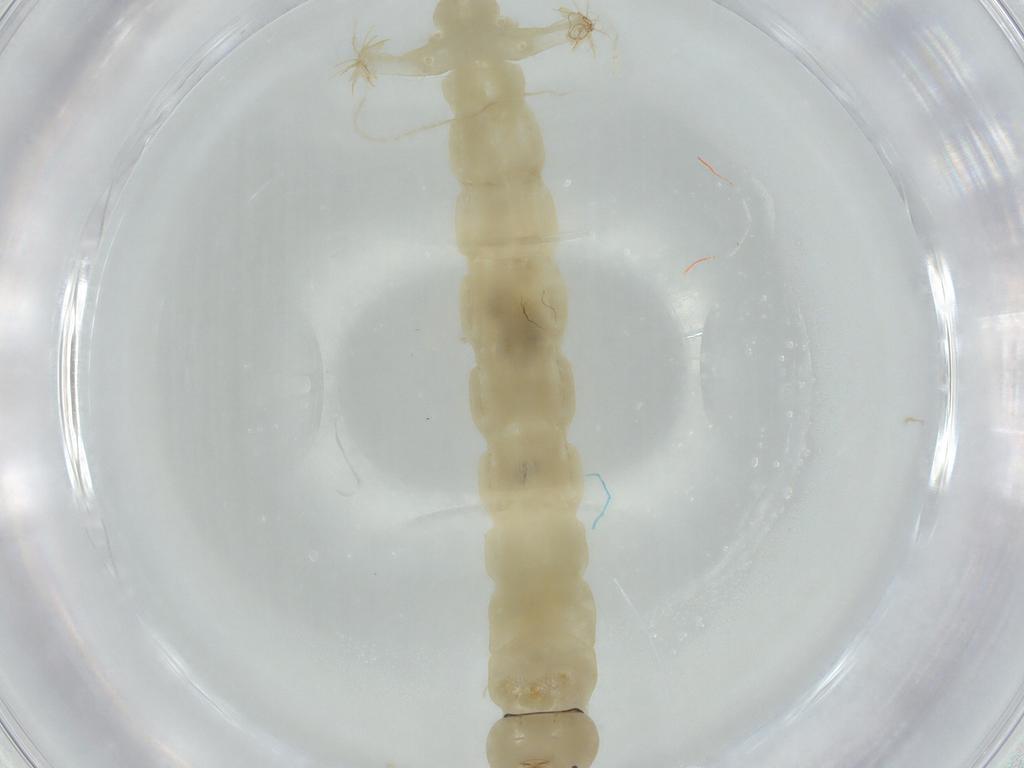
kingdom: Animalia
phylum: Arthropoda
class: Insecta
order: Diptera
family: Chironomidae
